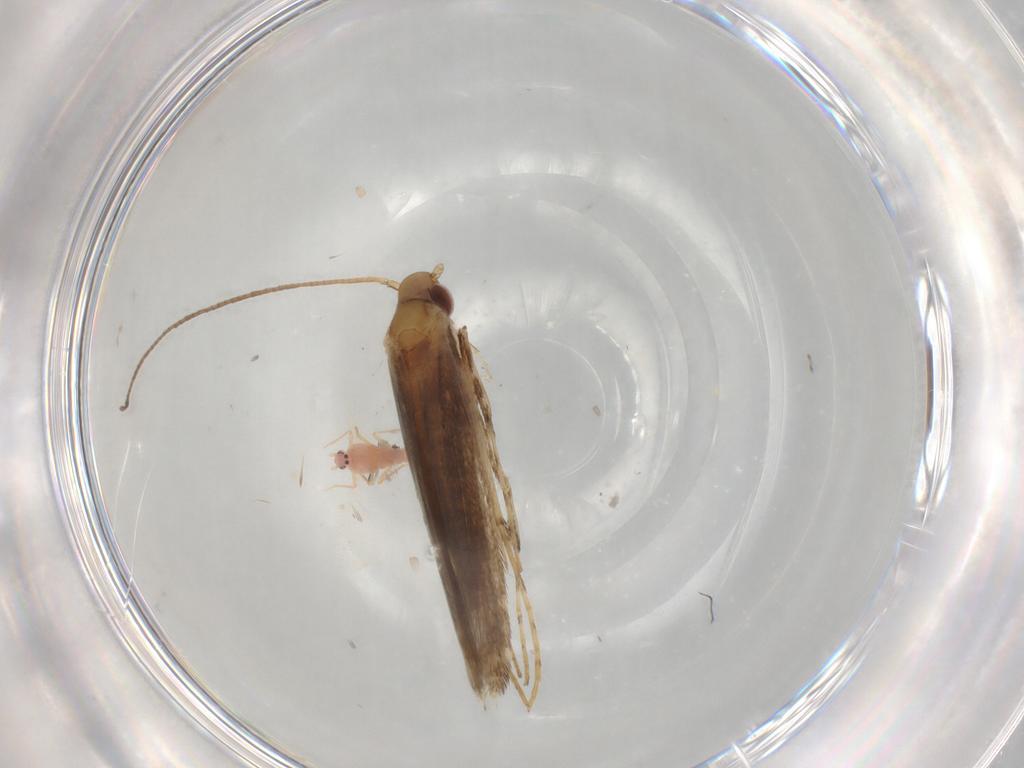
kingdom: Animalia
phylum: Arthropoda
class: Insecta
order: Lepidoptera
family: Gracillariidae
